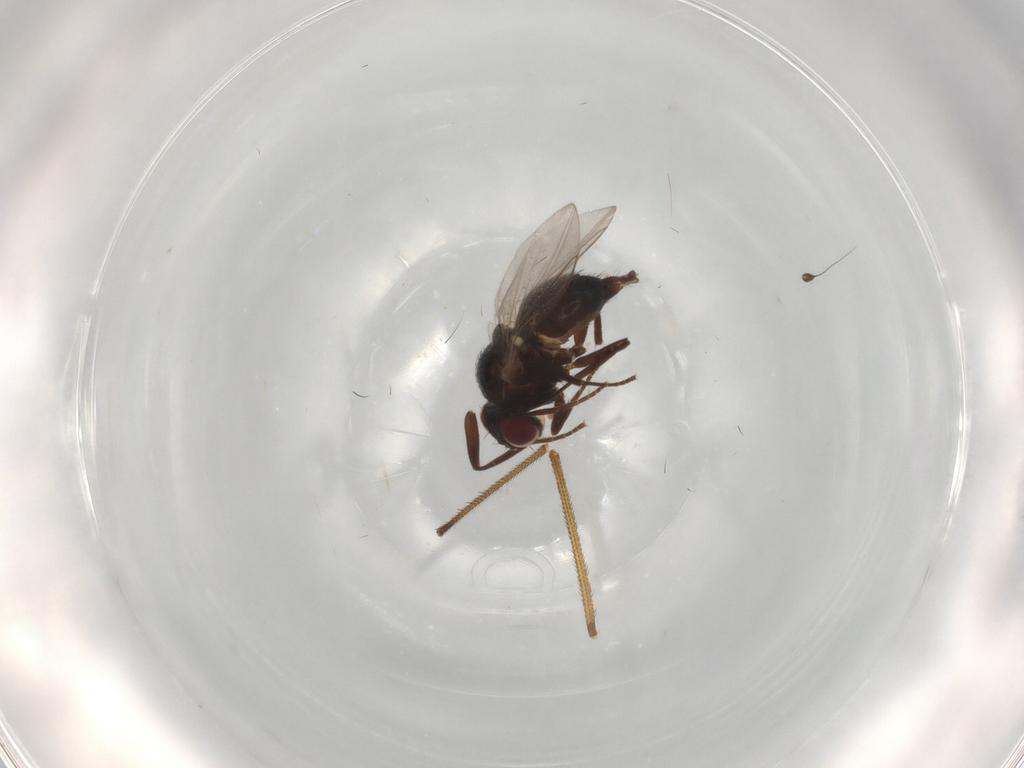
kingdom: Animalia
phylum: Arthropoda
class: Insecta
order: Diptera
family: Dolichopodidae
